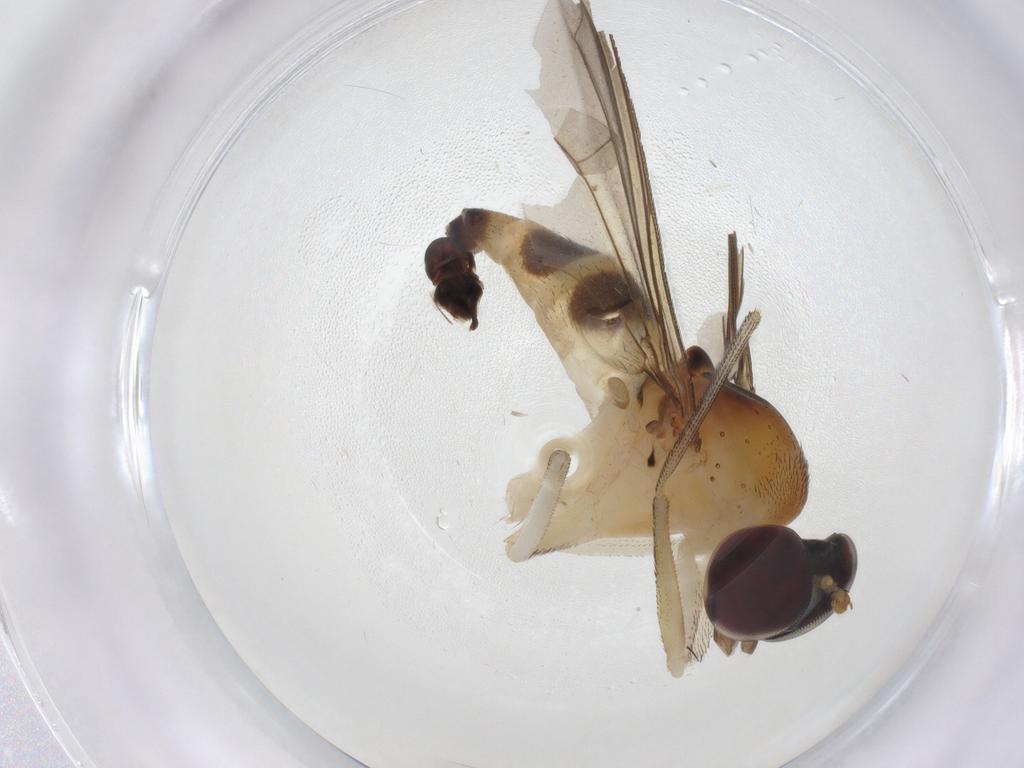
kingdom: Animalia
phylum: Arthropoda
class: Insecta
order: Diptera
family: Dolichopodidae
